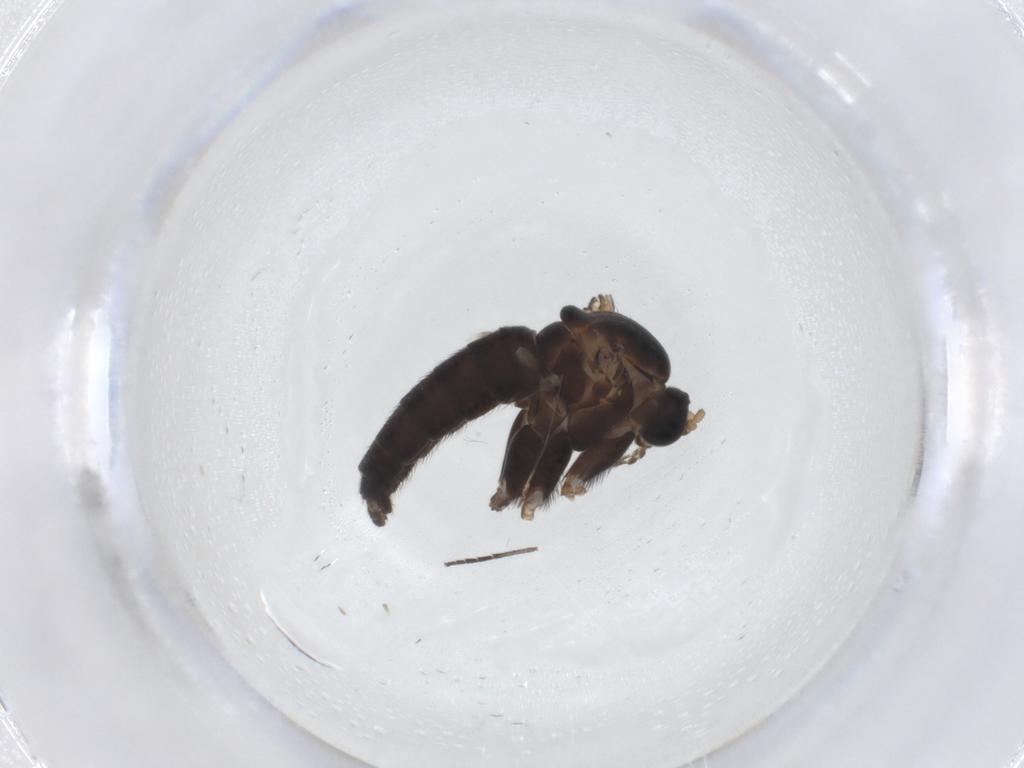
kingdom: Animalia
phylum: Arthropoda
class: Insecta
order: Diptera
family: Sciaridae
